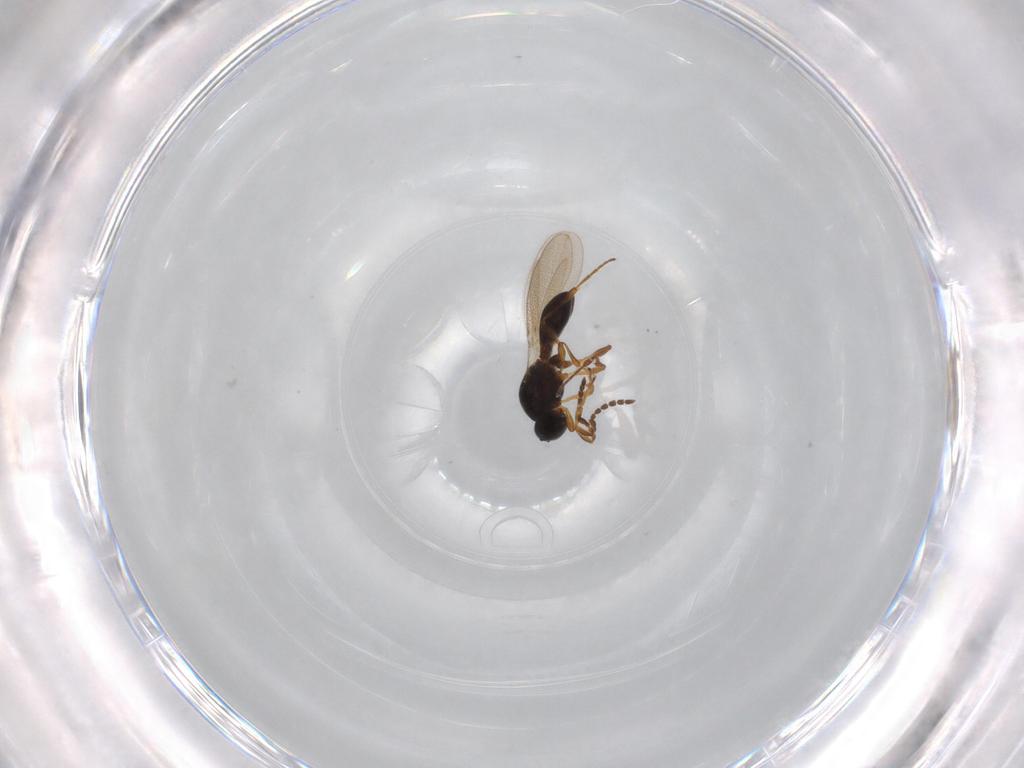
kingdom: Animalia
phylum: Arthropoda
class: Insecta
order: Hymenoptera
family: Platygastridae
